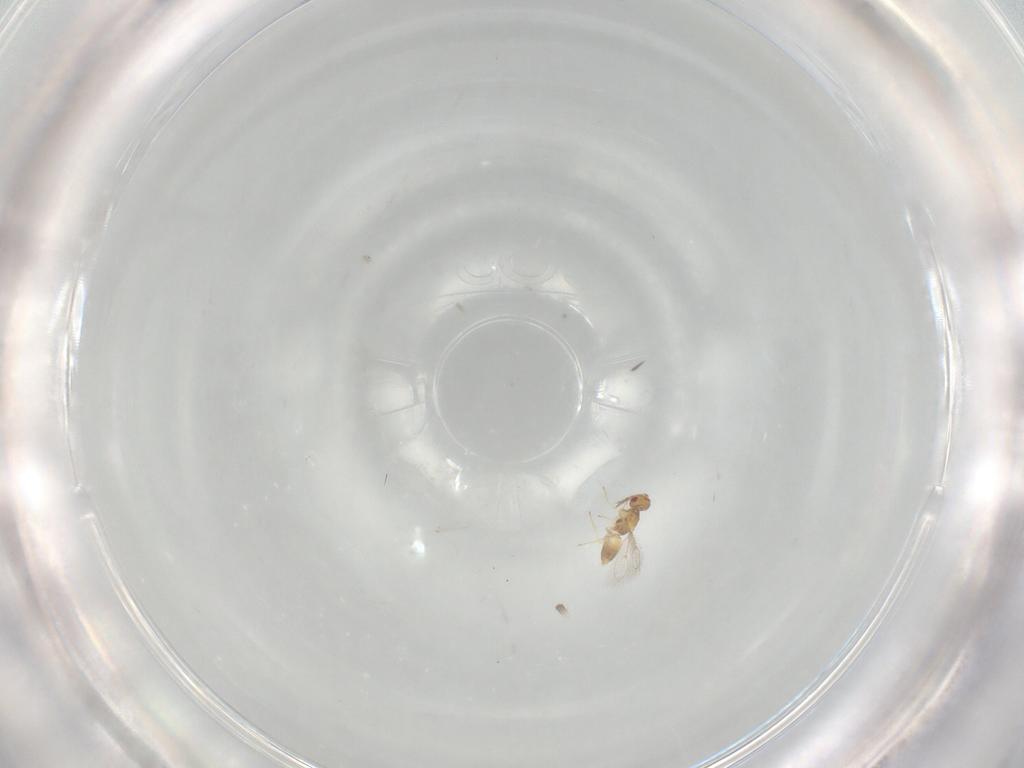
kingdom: Animalia
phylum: Arthropoda
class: Insecta
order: Hymenoptera
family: Eulophidae
